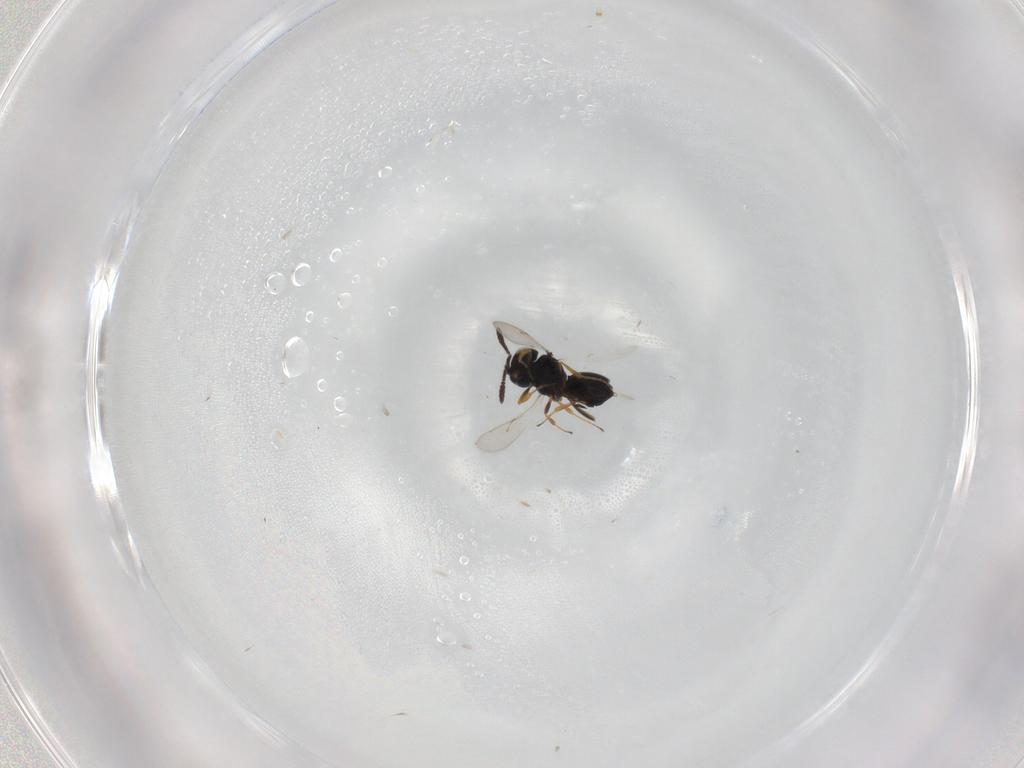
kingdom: Animalia
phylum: Arthropoda
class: Insecta
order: Hymenoptera
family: Scelionidae
